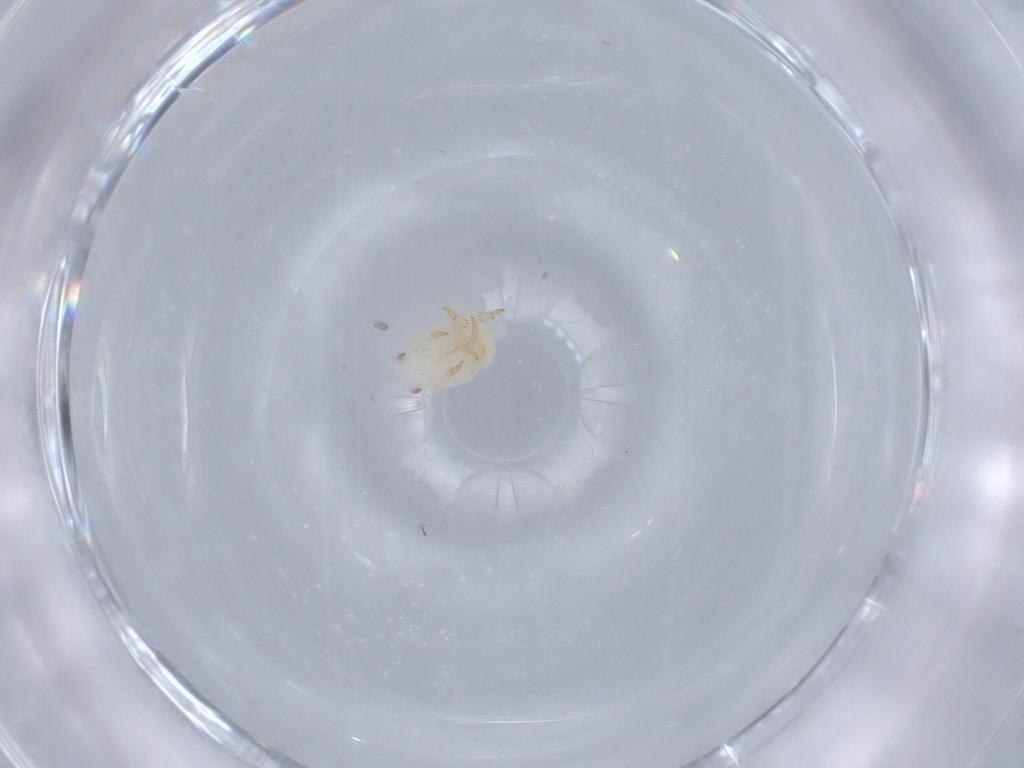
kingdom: Animalia
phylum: Arthropoda
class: Insecta
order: Hemiptera
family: Flatidae
